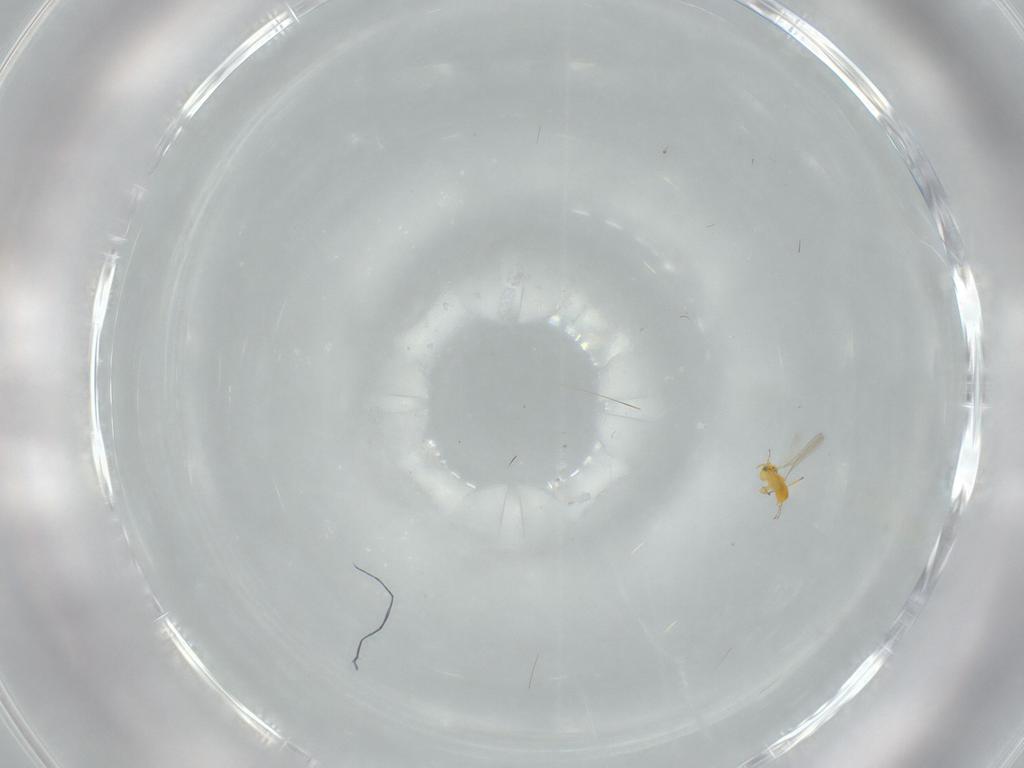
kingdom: Animalia
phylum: Arthropoda
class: Insecta
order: Hymenoptera
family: Aphelinidae
